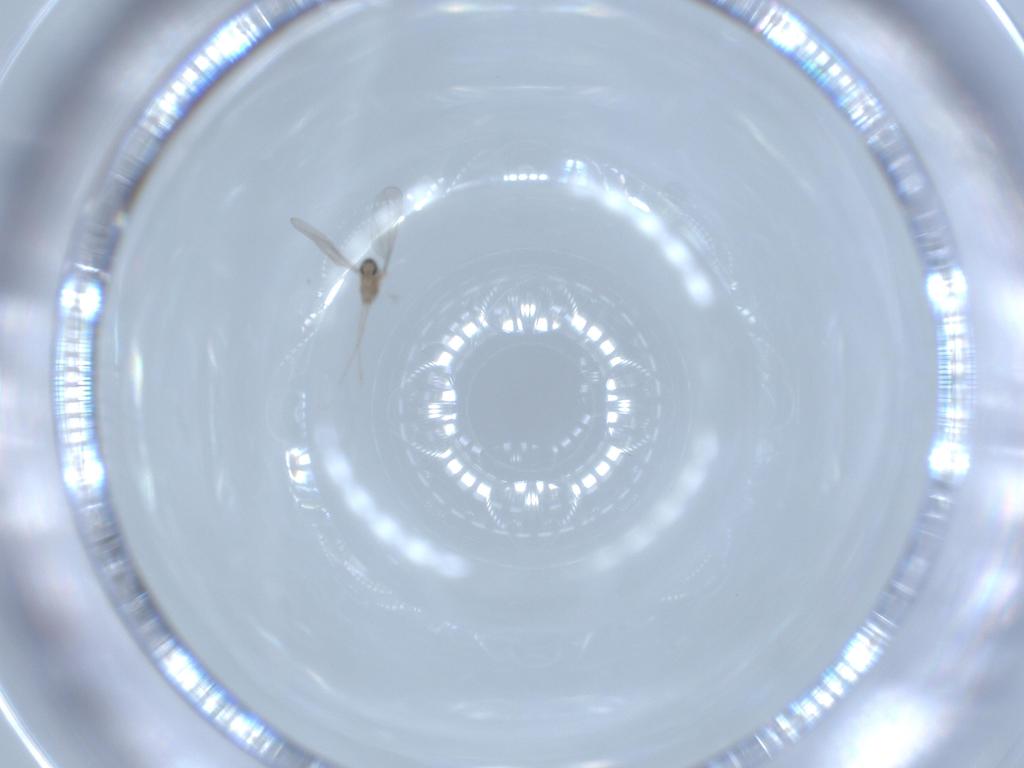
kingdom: Animalia
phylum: Arthropoda
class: Insecta
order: Diptera
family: Cecidomyiidae
